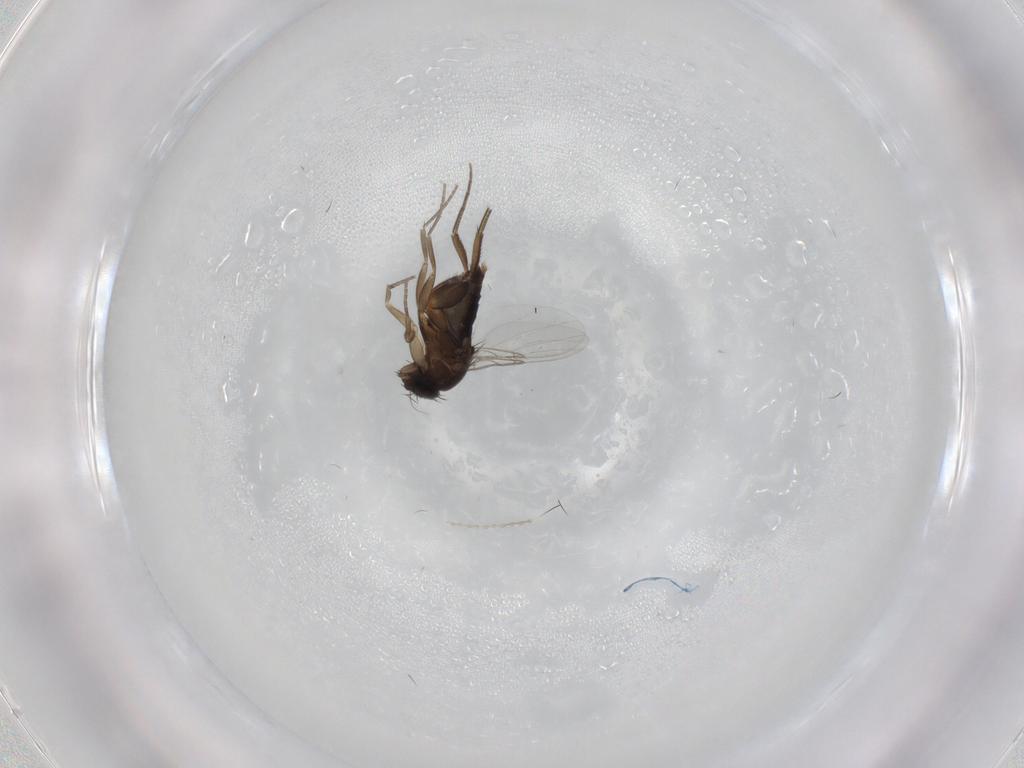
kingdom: Animalia
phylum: Arthropoda
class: Insecta
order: Diptera
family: Phoridae
